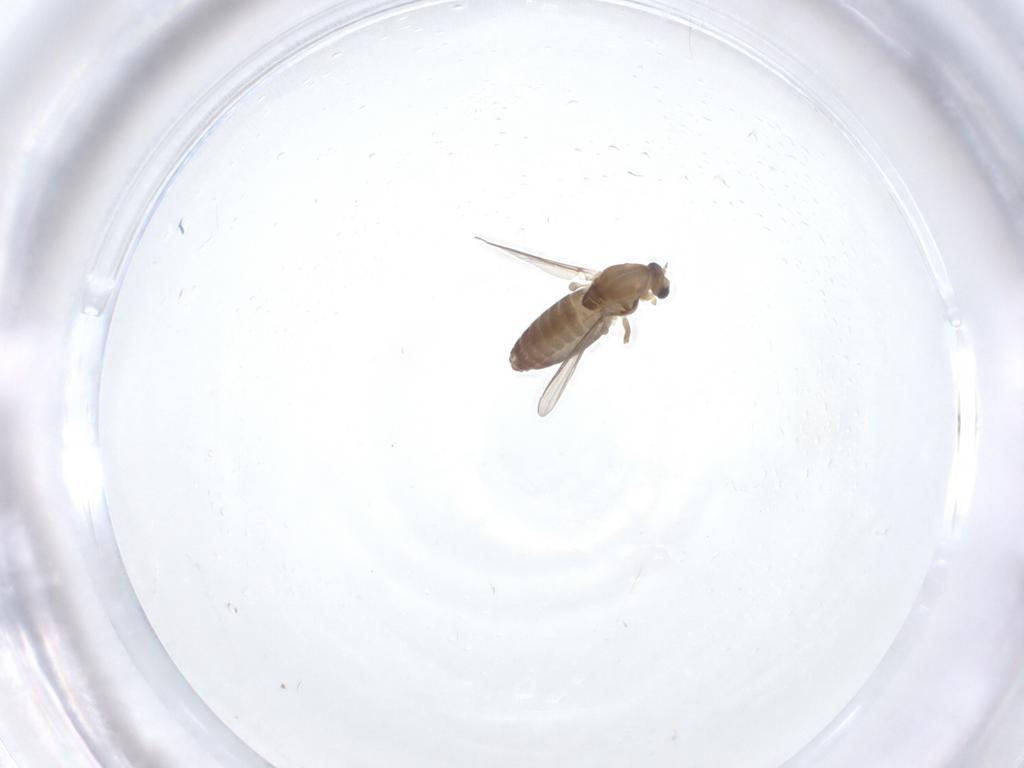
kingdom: Animalia
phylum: Arthropoda
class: Insecta
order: Diptera
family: Chironomidae
